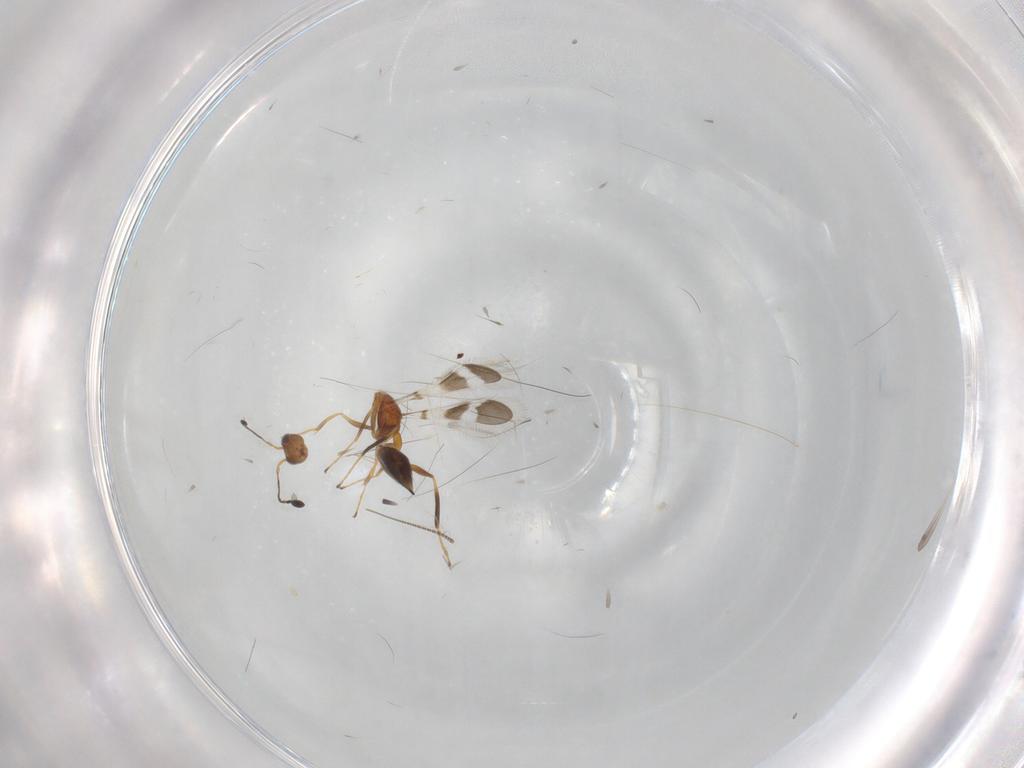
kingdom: Animalia
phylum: Arthropoda
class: Insecta
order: Hymenoptera
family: Mymaridae
